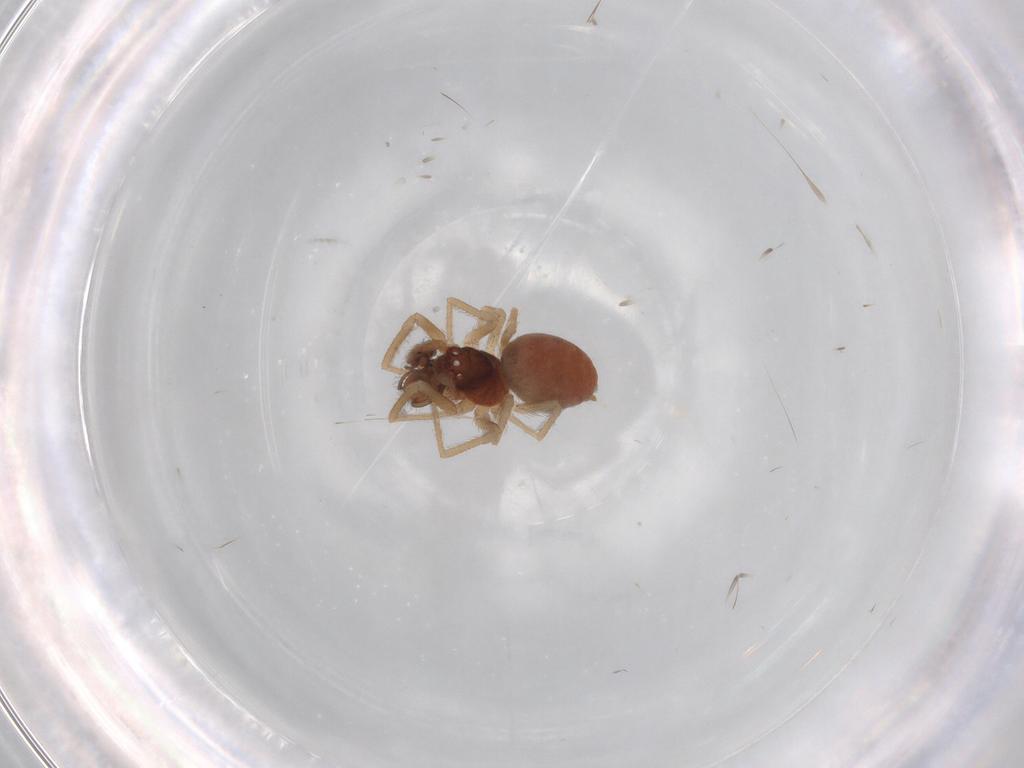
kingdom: Animalia
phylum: Arthropoda
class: Arachnida
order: Araneae
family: Dictynidae
